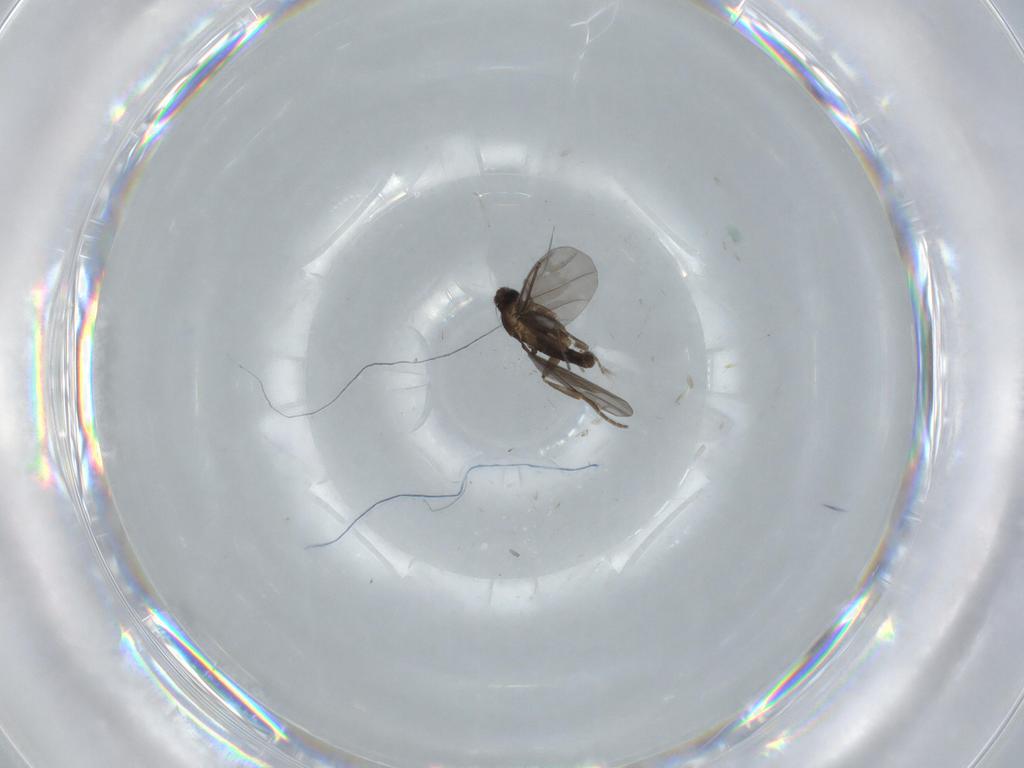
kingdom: Animalia
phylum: Arthropoda
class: Insecta
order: Diptera
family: Phoridae
